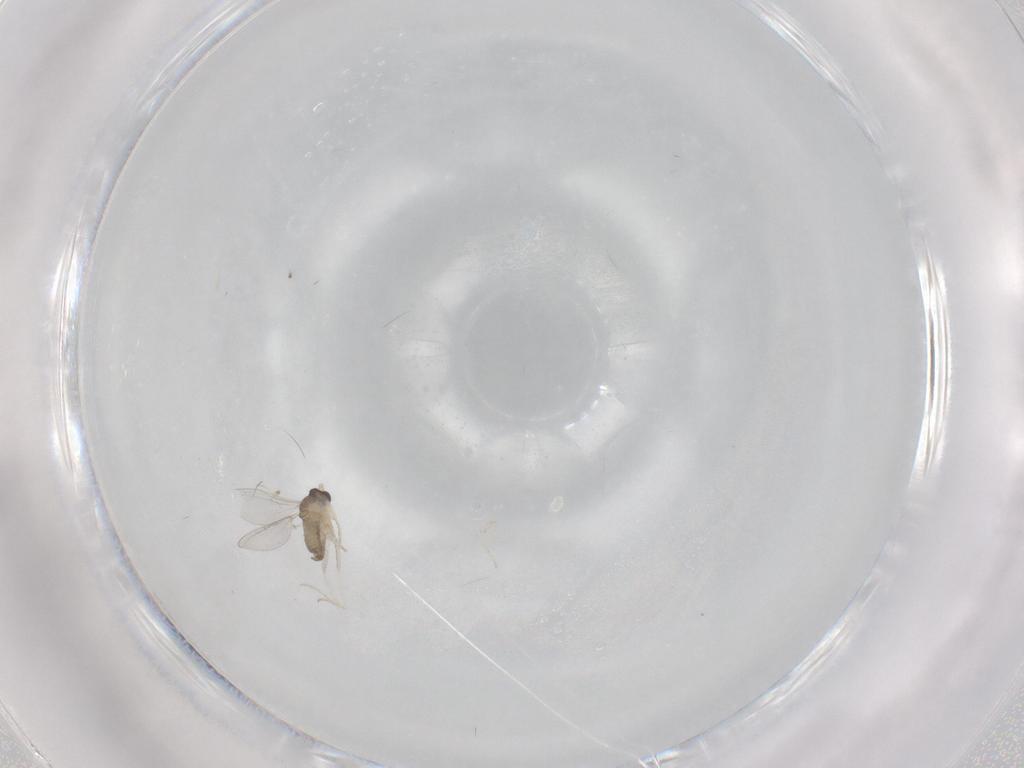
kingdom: Animalia
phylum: Arthropoda
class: Insecta
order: Diptera
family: Cecidomyiidae
